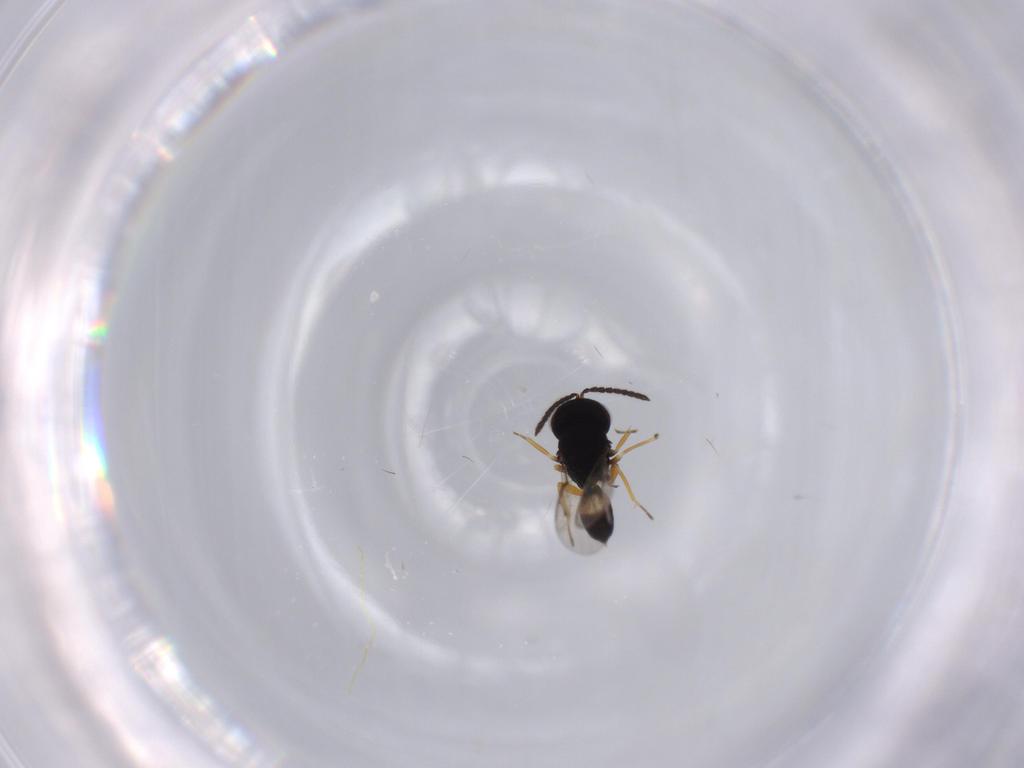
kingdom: Animalia
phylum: Arthropoda
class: Insecta
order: Hymenoptera
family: Pteromalidae
